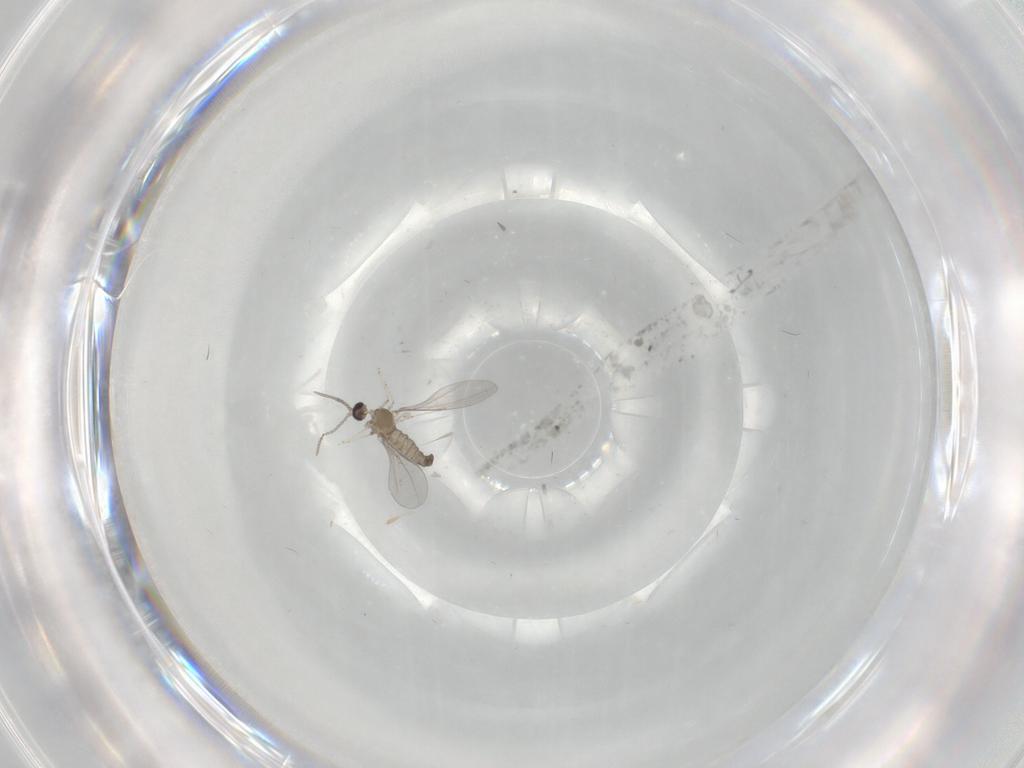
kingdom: Animalia
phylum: Arthropoda
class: Insecta
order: Diptera
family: Cecidomyiidae
